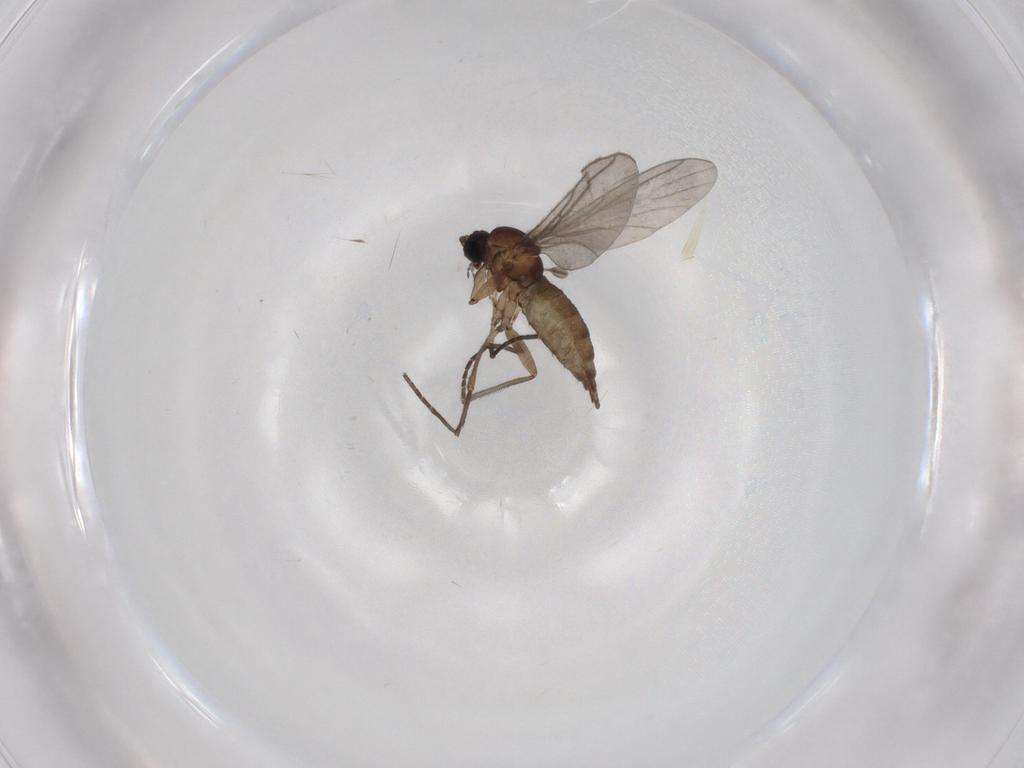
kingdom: Animalia
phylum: Arthropoda
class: Insecta
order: Diptera
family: Sciaridae
